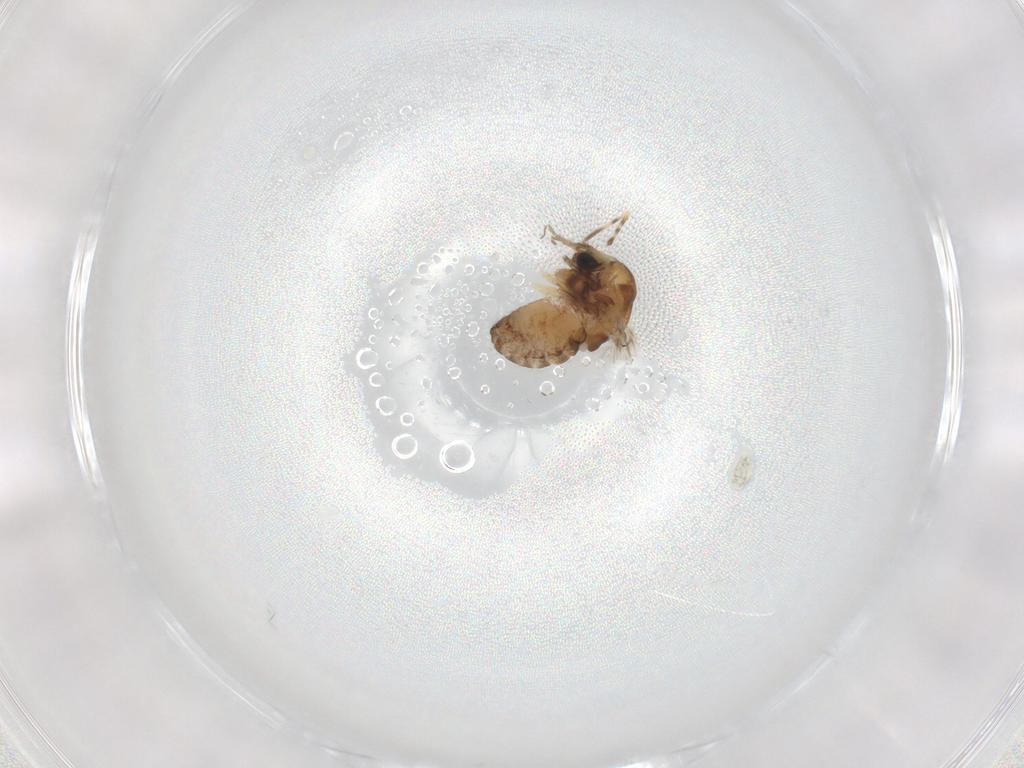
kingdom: Animalia
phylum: Arthropoda
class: Insecta
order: Diptera
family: Chironomidae
